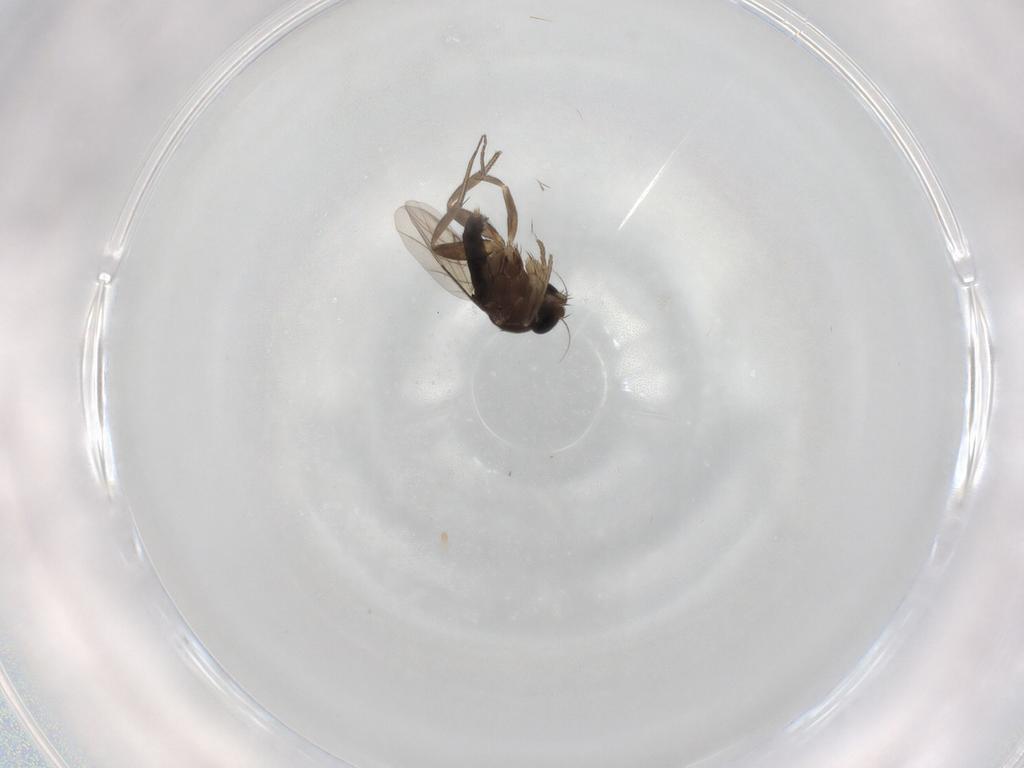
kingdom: Animalia
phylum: Arthropoda
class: Insecta
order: Diptera
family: Phoridae
